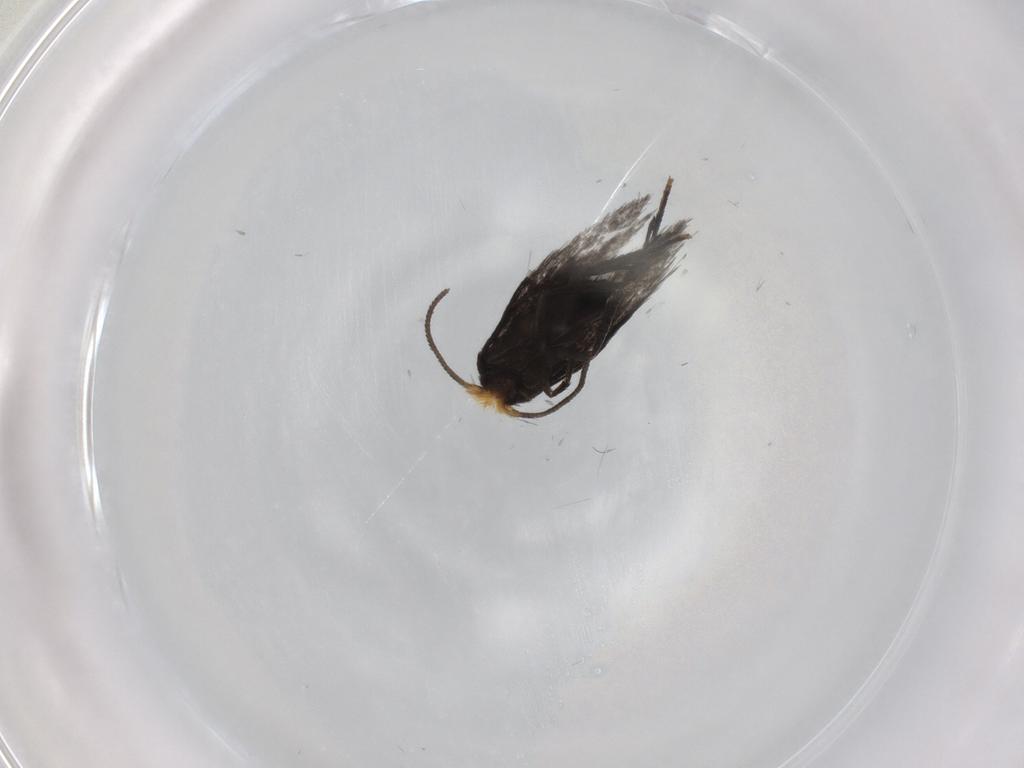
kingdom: Animalia
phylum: Arthropoda
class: Insecta
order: Lepidoptera
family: Nepticulidae
